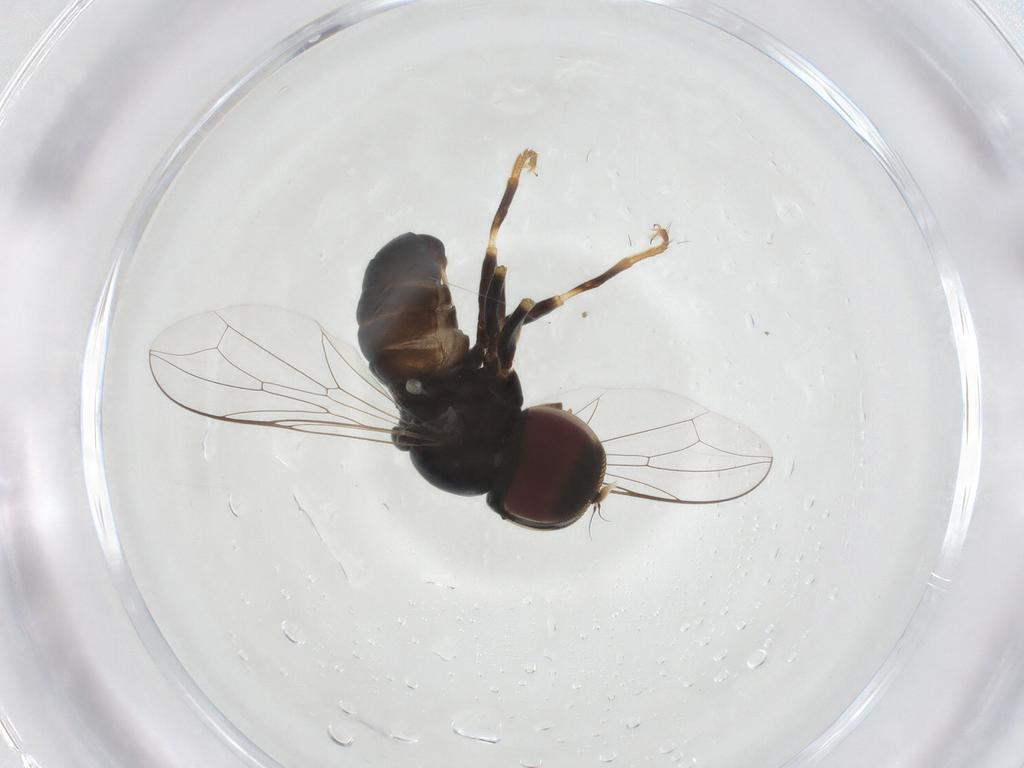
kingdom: Animalia
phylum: Arthropoda
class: Insecta
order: Diptera
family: Pipunculidae
